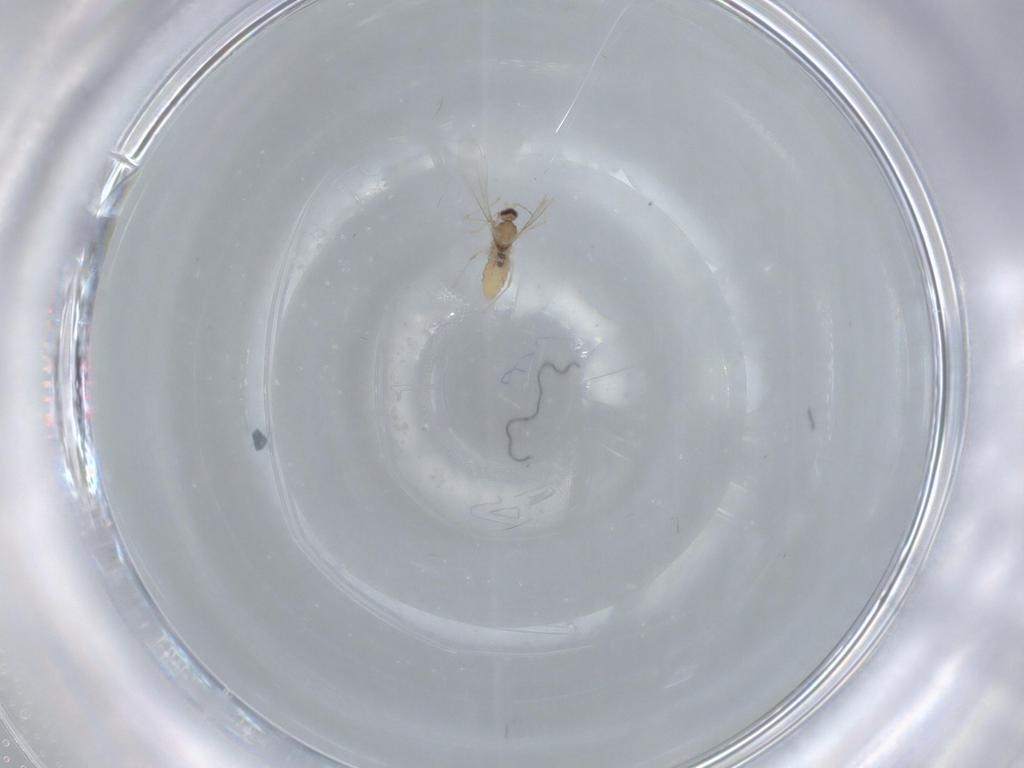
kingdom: Animalia
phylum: Arthropoda
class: Insecta
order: Diptera
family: Cecidomyiidae
